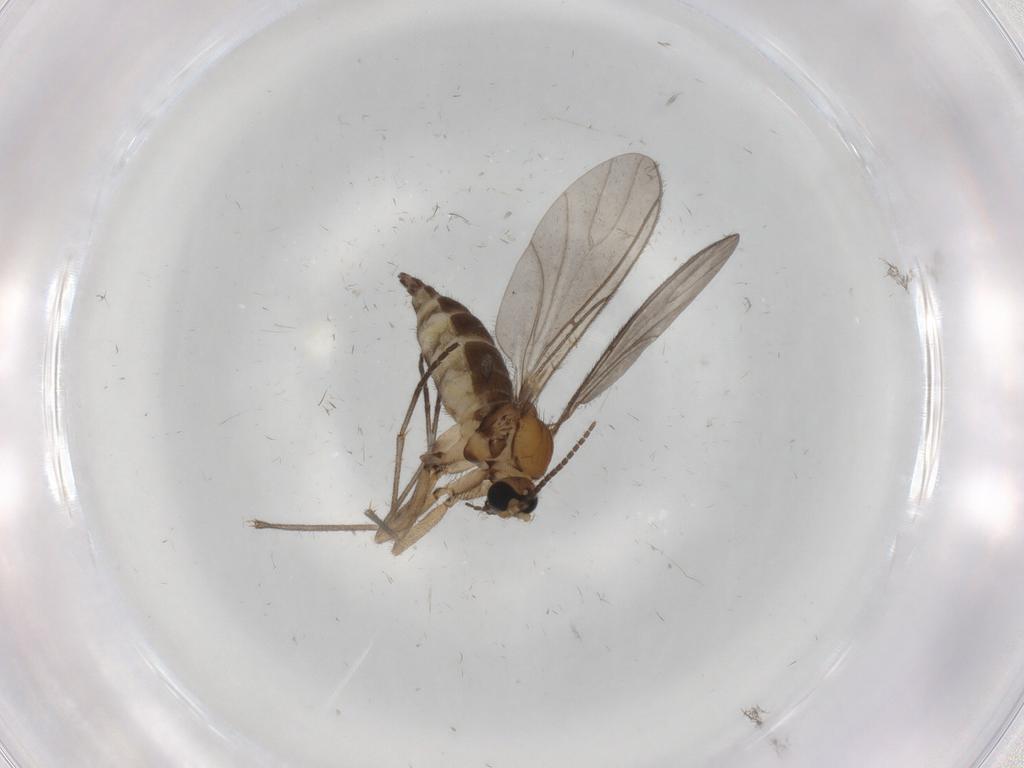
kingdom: Animalia
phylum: Arthropoda
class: Insecta
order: Diptera
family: Sciaridae
